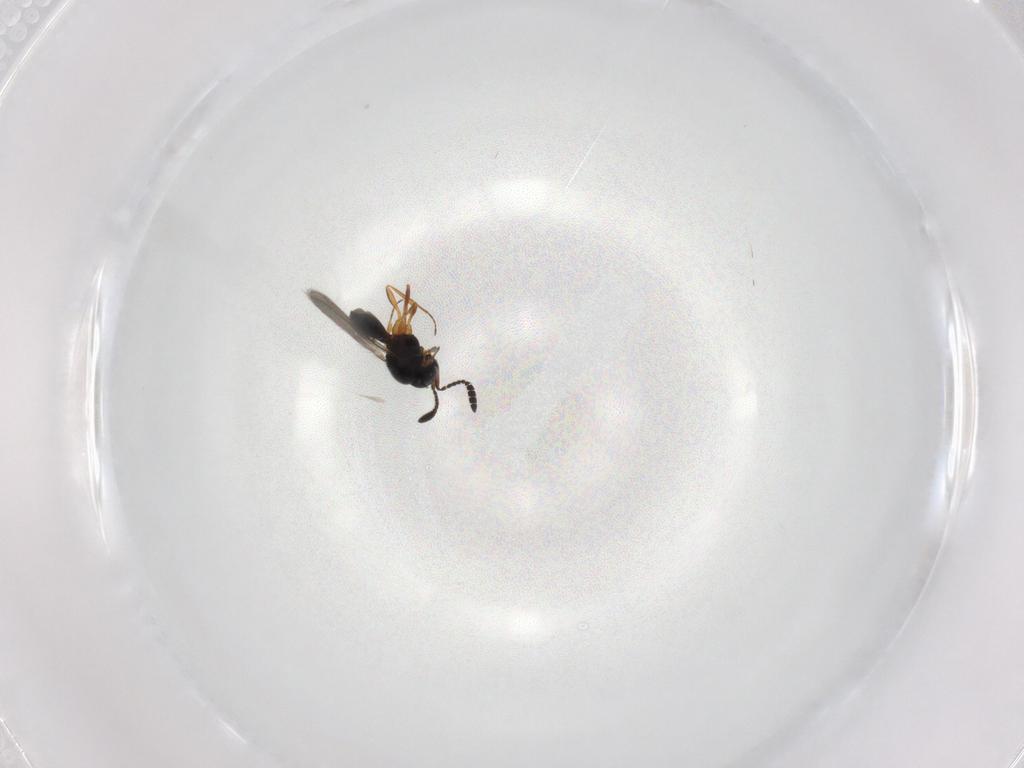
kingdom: Animalia
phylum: Arthropoda
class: Insecta
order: Hymenoptera
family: Scelionidae
